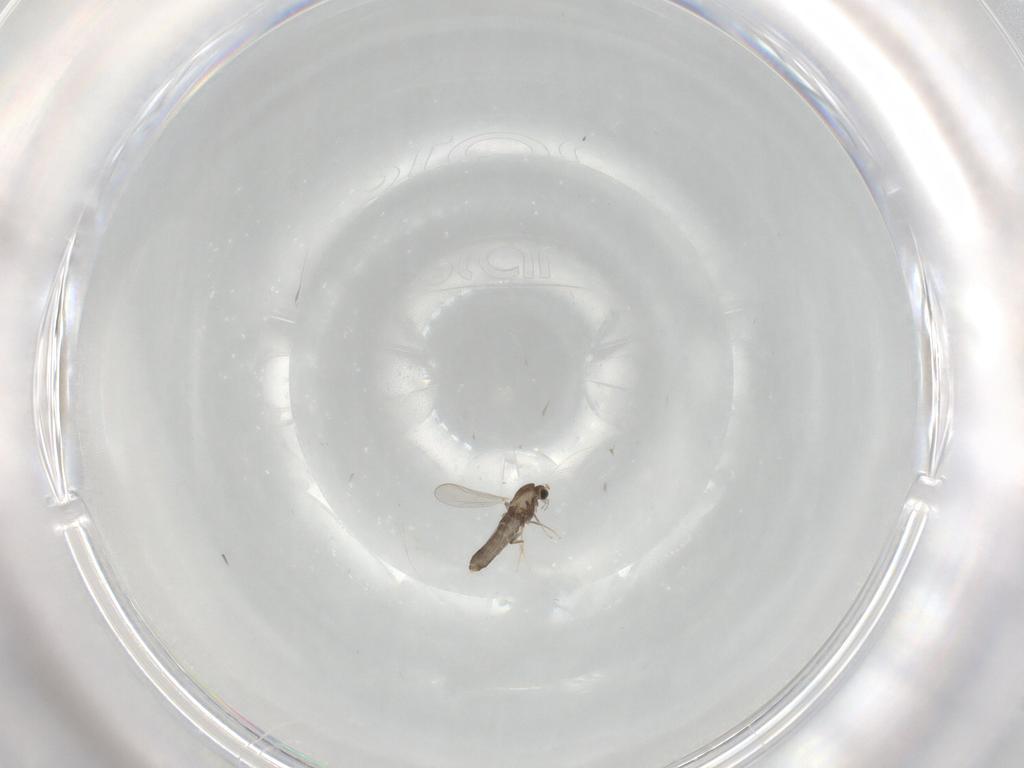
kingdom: Animalia
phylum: Arthropoda
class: Insecta
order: Diptera
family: Chironomidae
